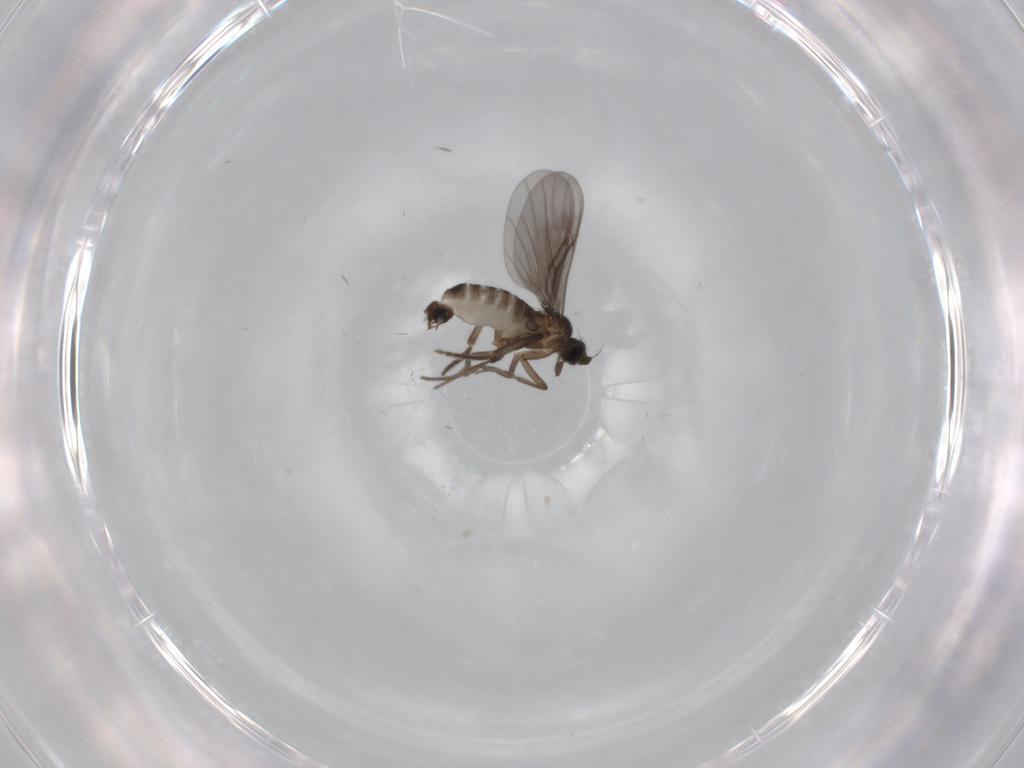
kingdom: Animalia
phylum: Arthropoda
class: Insecta
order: Diptera
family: Phoridae
